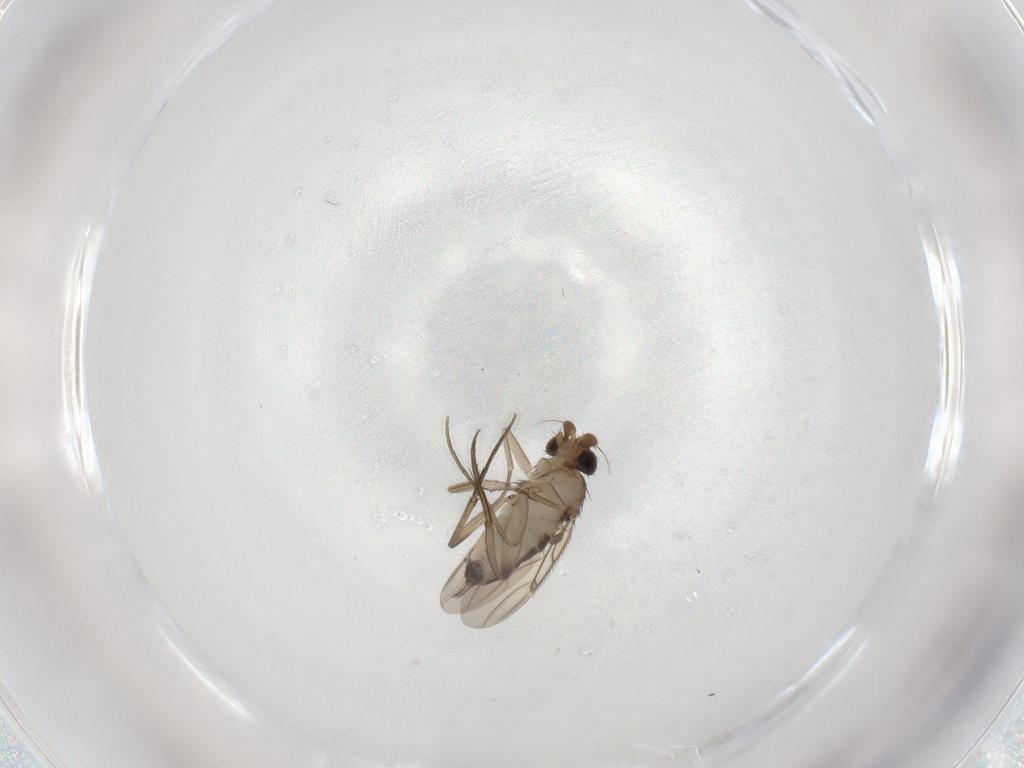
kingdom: Animalia
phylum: Arthropoda
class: Insecta
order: Diptera
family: Phoridae
